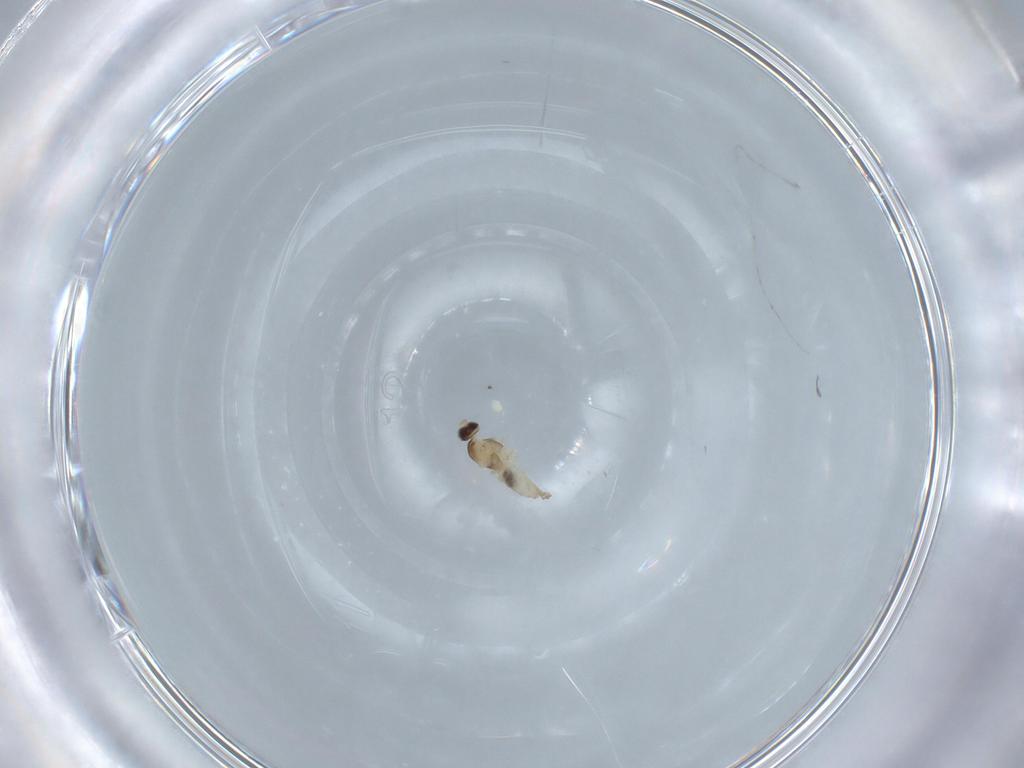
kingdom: Animalia
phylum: Arthropoda
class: Insecta
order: Diptera
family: Cecidomyiidae
